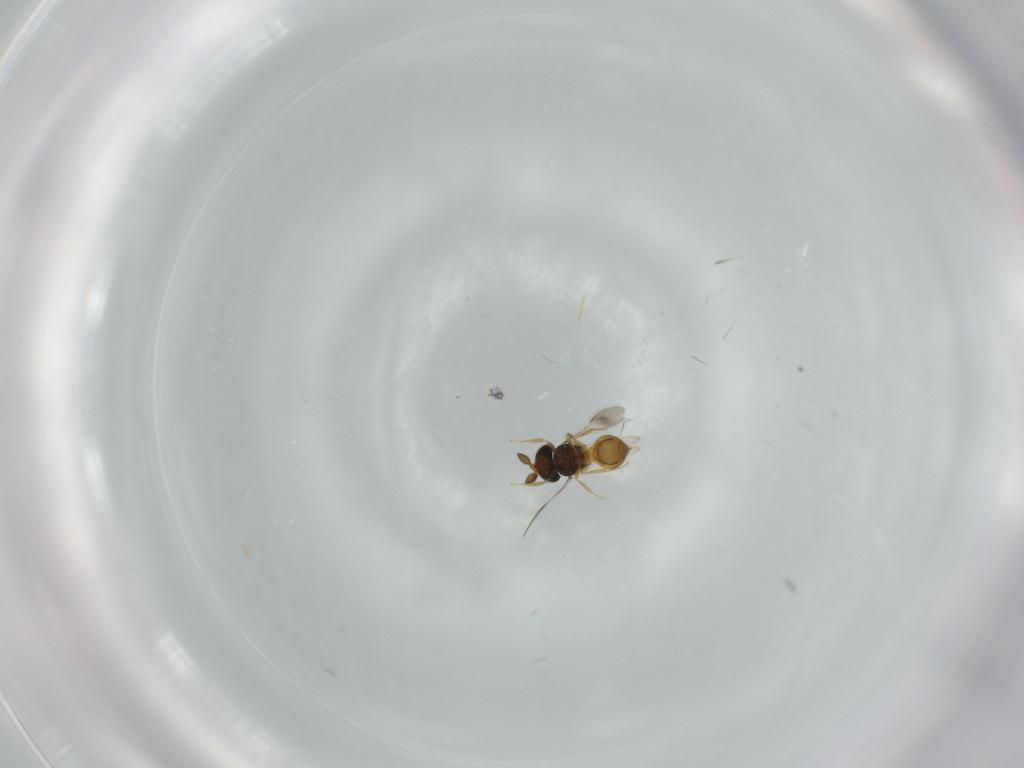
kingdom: Animalia
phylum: Arthropoda
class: Insecta
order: Hymenoptera
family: Scelionidae
